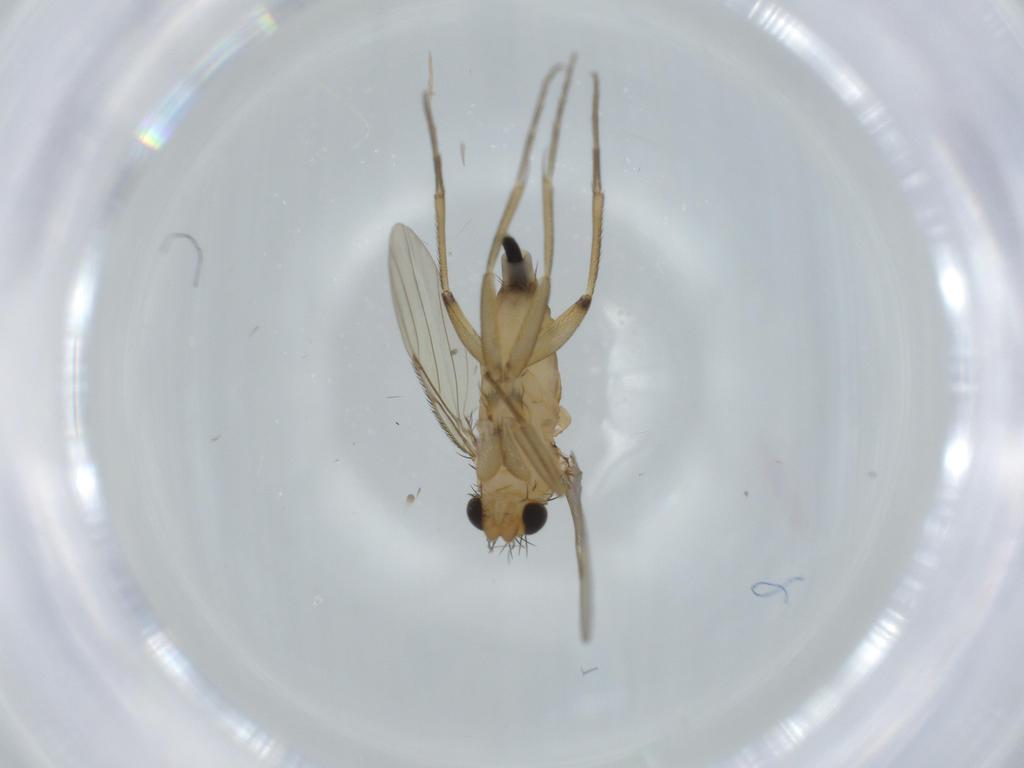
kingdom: Animalia
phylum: Arthropoda
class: Insecta
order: Diptera
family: Phoridae
